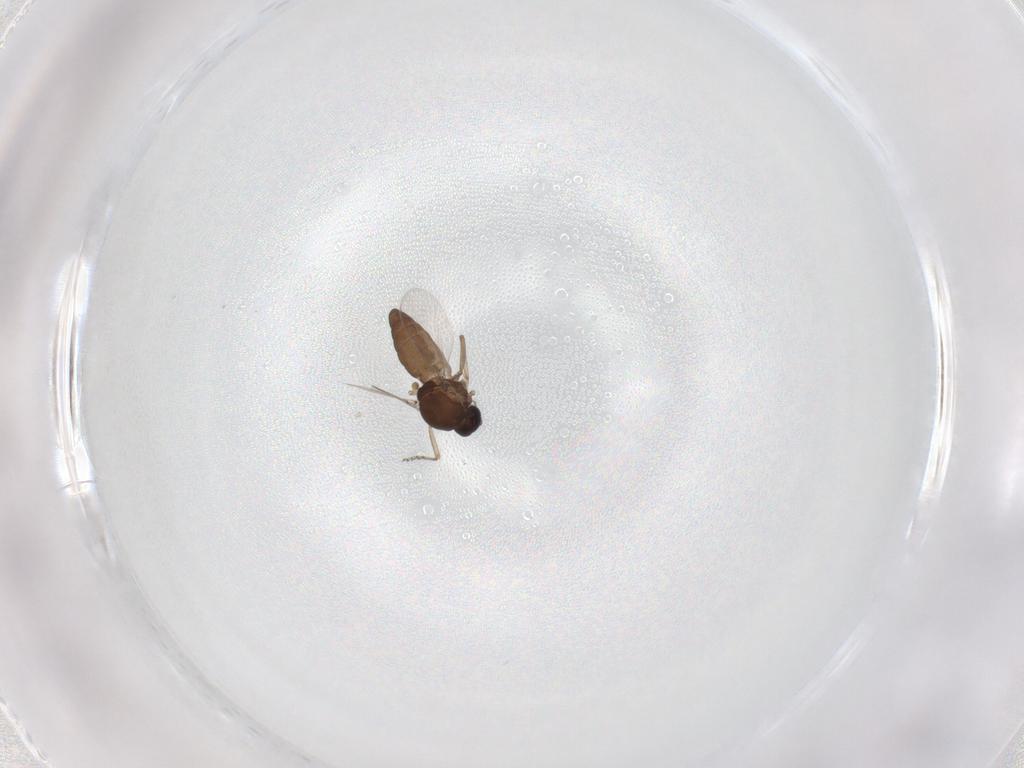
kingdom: Animalia
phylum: Arthropoda
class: Insecta
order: Diptera
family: Ceratopogonidae
